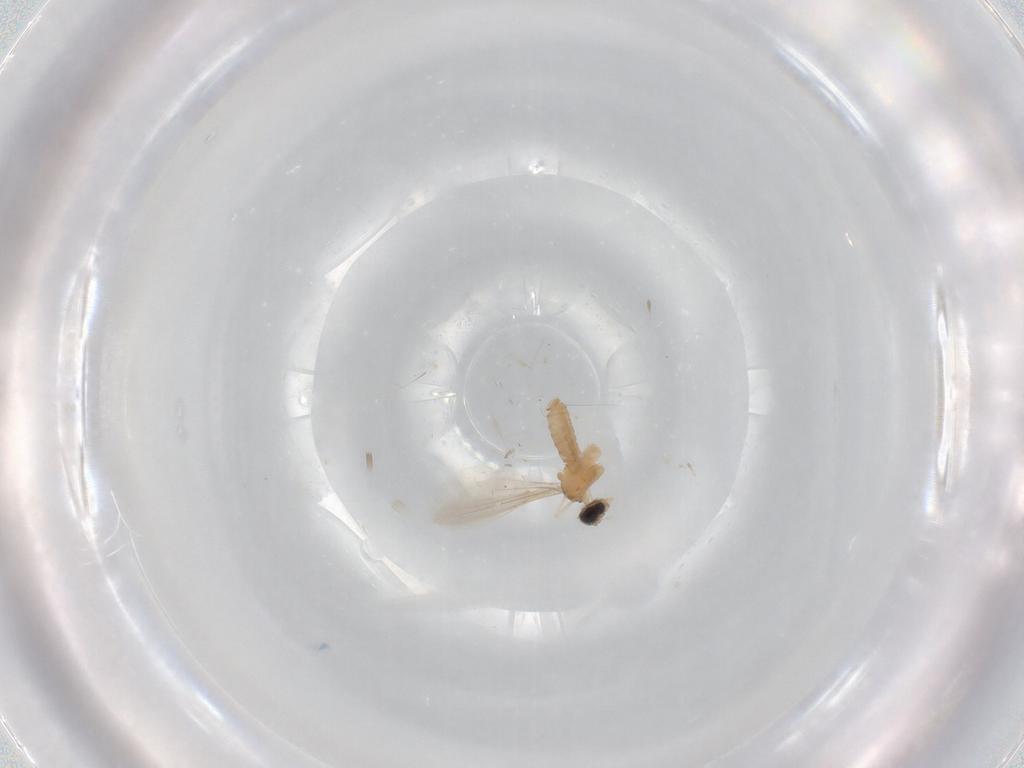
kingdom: Animalia
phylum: Arthropoda
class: Insecta
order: Diptera
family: Cecidomyiidae
